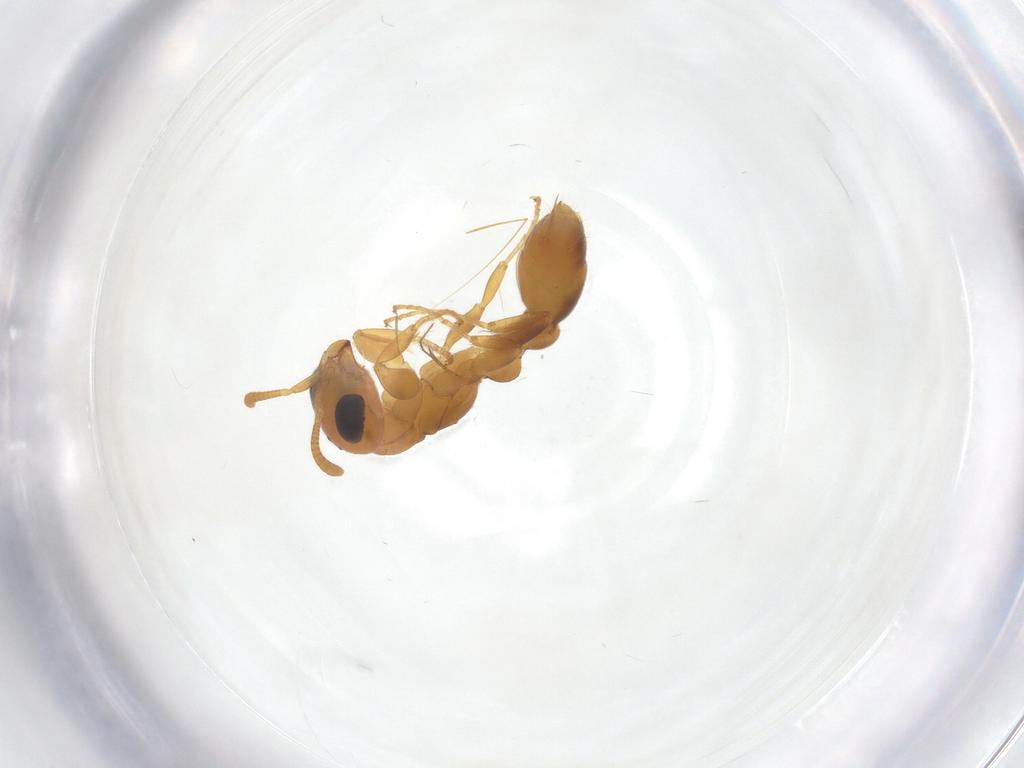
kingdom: Animalia
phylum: Arthropoda
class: Insecta
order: Hymenoptera
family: Formicidae
